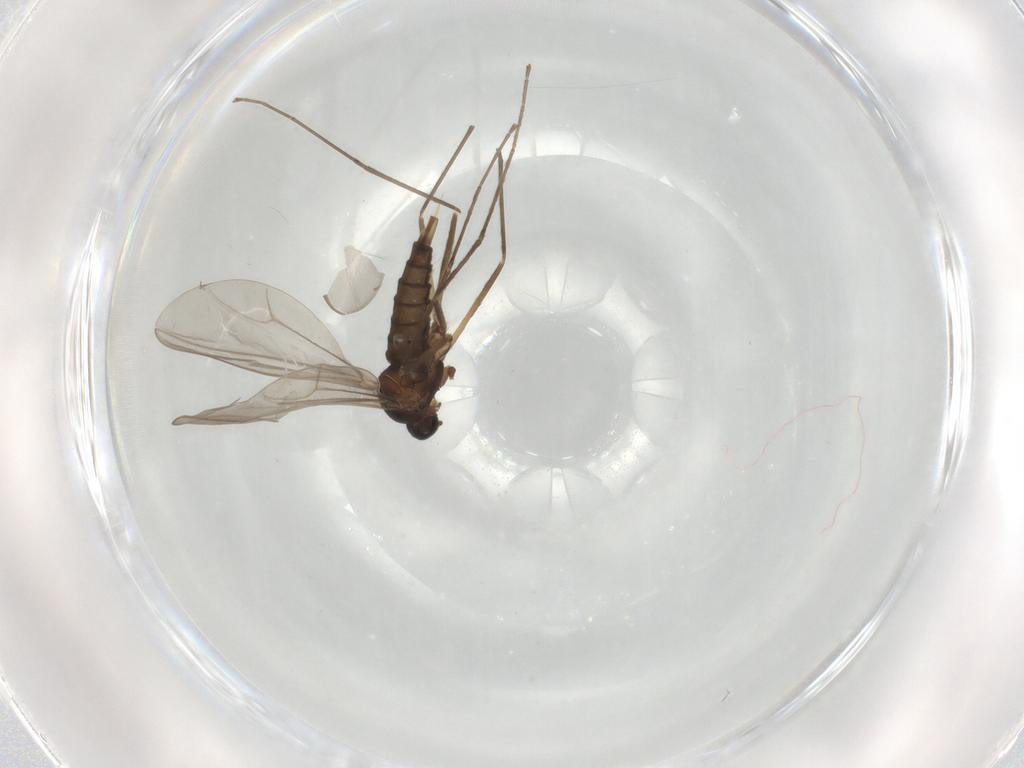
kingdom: Animalia
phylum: Arthropoda
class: Insecta
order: Diptera
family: Cecidomyiidae
